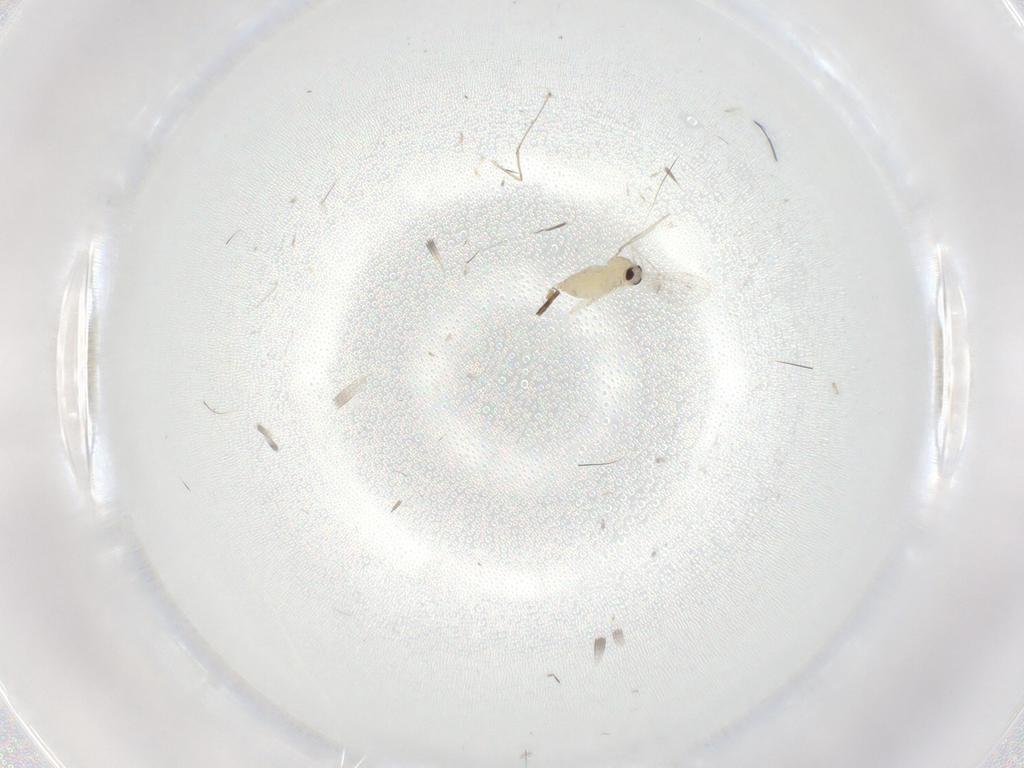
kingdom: Animalia
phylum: Arthropoda
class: Insecta
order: Diptera
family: Cecidomyiidae
